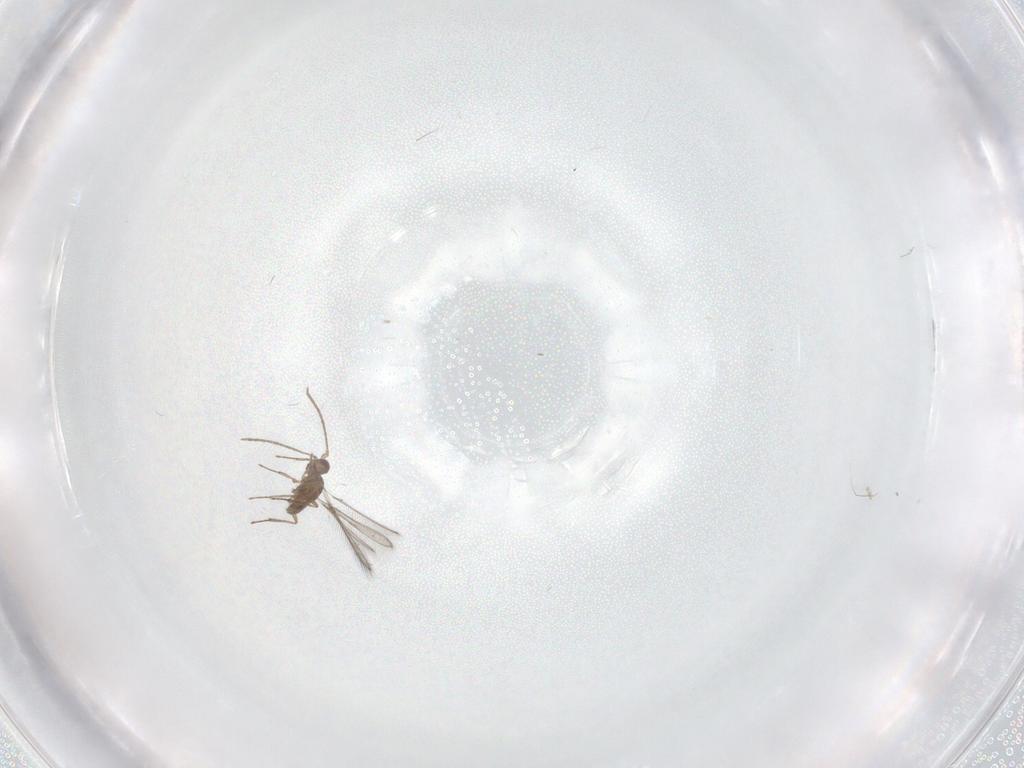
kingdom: Animalia
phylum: Arthropoda
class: Insecta
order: Hymenoptera
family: Mymaridae
